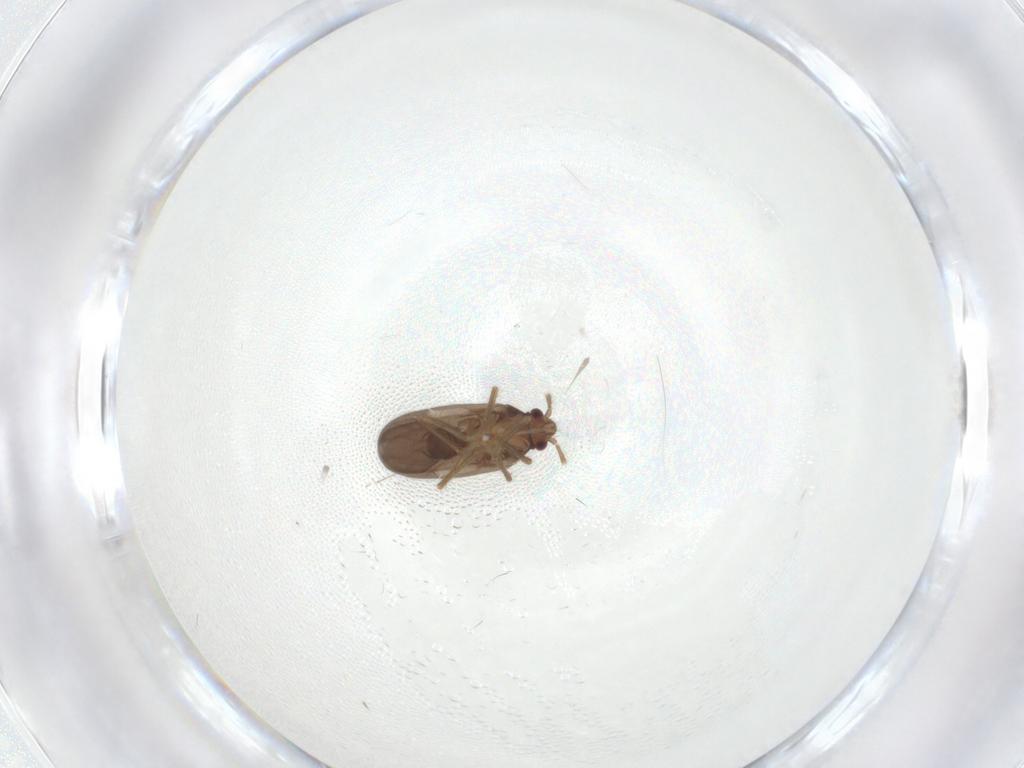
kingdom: Animalia
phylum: Arthropoda
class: Insecta
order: Hemiptera
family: Ceratocombidae
